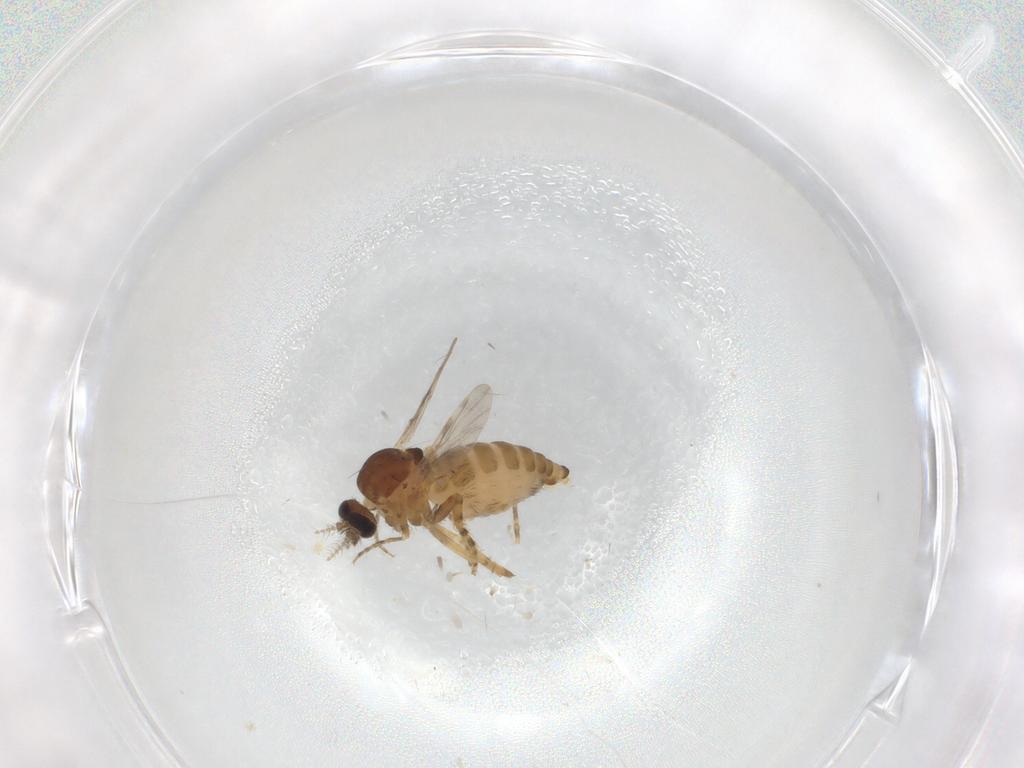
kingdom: Animalia
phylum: Arthropoda
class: Insecta
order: Diptera
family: Ceratopogonidae
